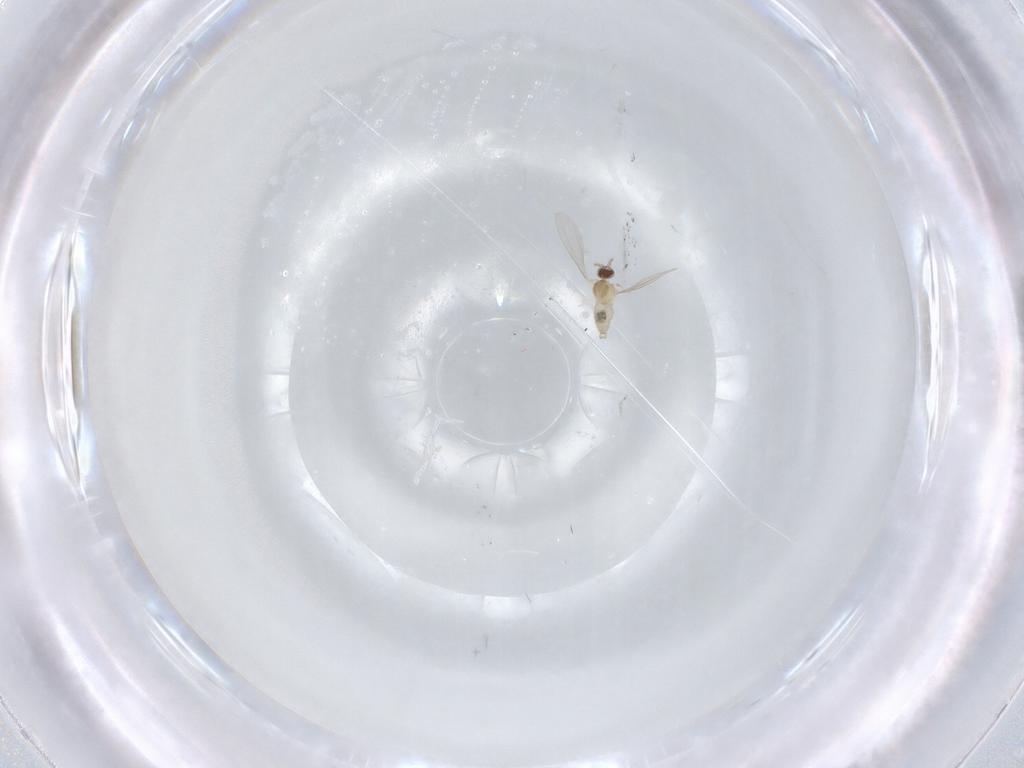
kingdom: Animalia
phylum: Arthropoda
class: Insecta
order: Diptera
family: Cecidomyiidae
